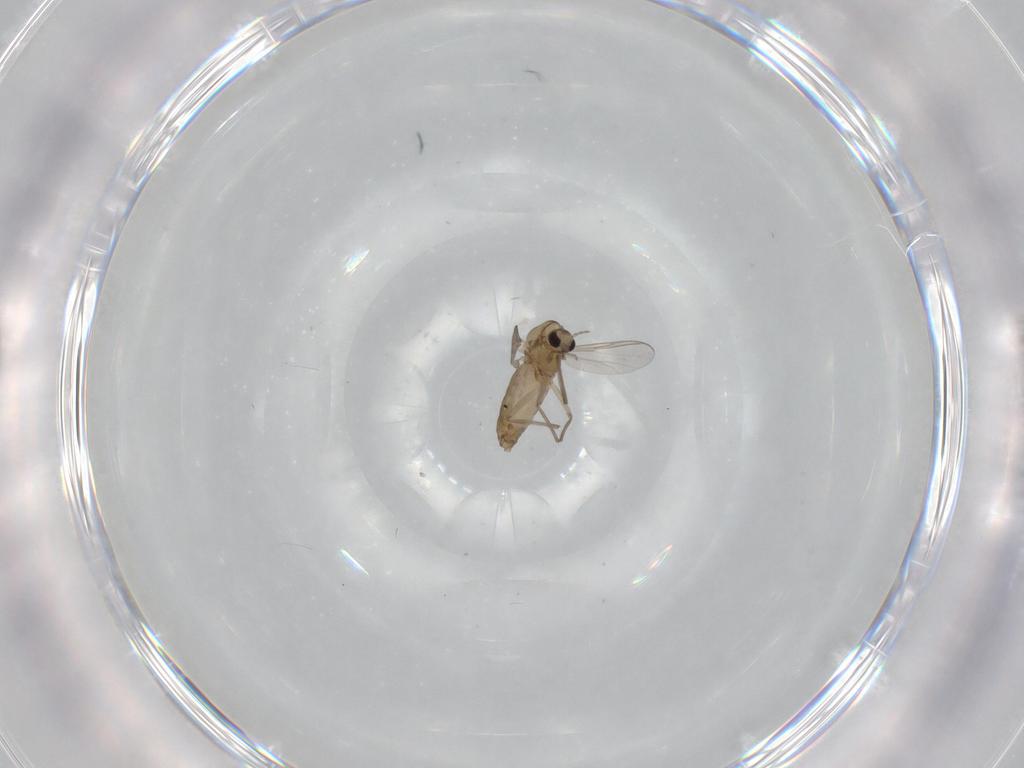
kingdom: Animalia
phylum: Arthropoda
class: Insecta
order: Diptera
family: Chironomidae
